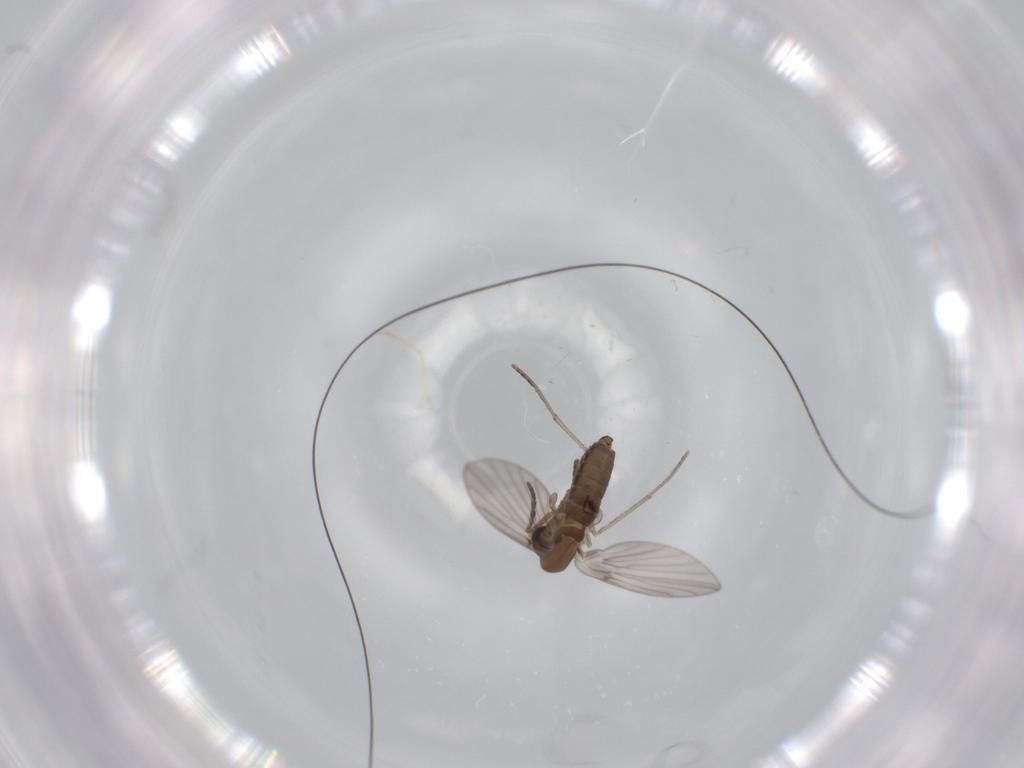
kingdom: Animalia
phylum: Arthropoda
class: Insecta
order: Diptera
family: Psychodidae
